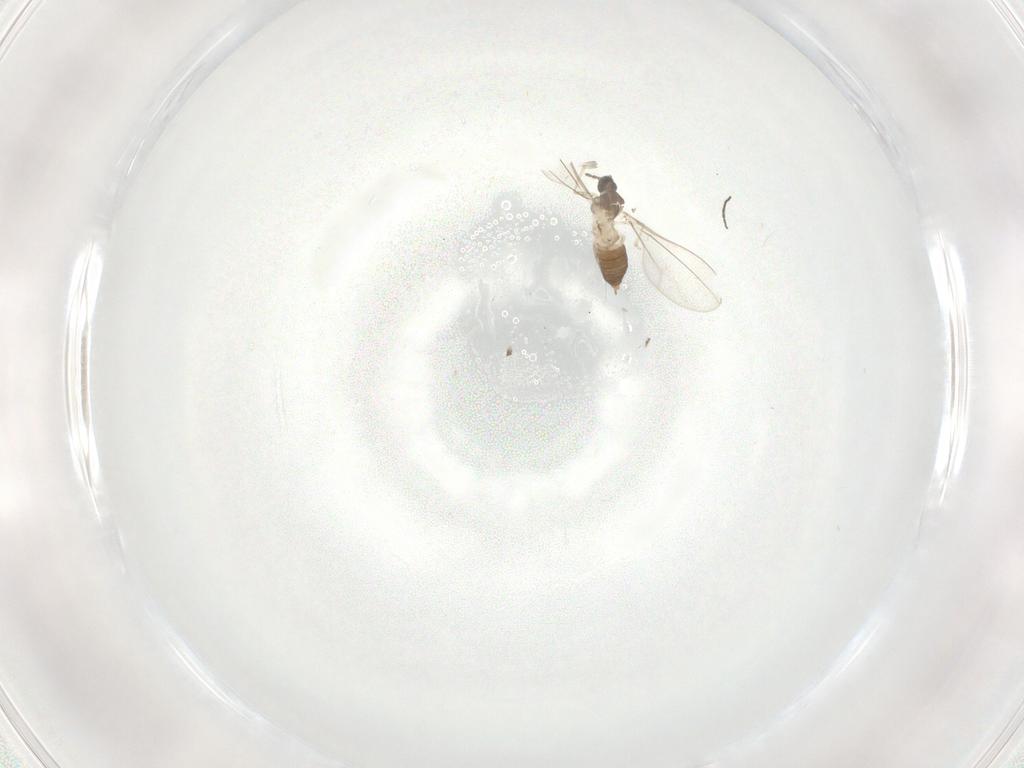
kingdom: Animalia
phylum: Arthropoda
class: Insecta
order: Diptera
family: Cecidomyiidae
